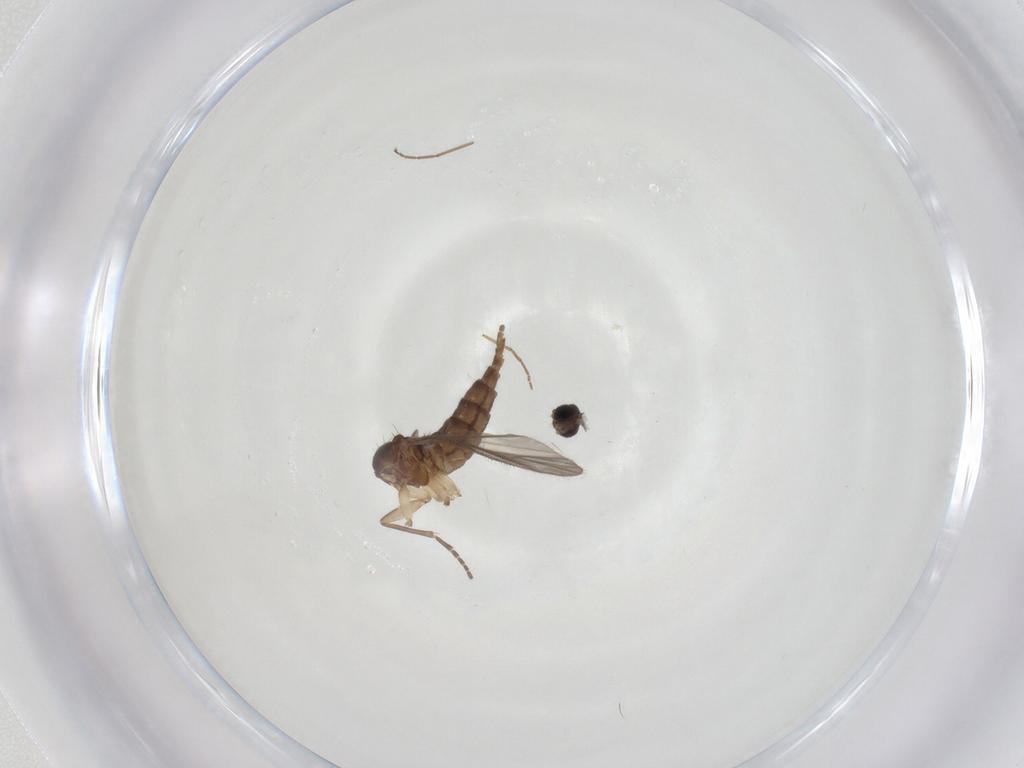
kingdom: Animalia
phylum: Arthropoda
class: Insecta
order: Diptera
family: Sciaridae
